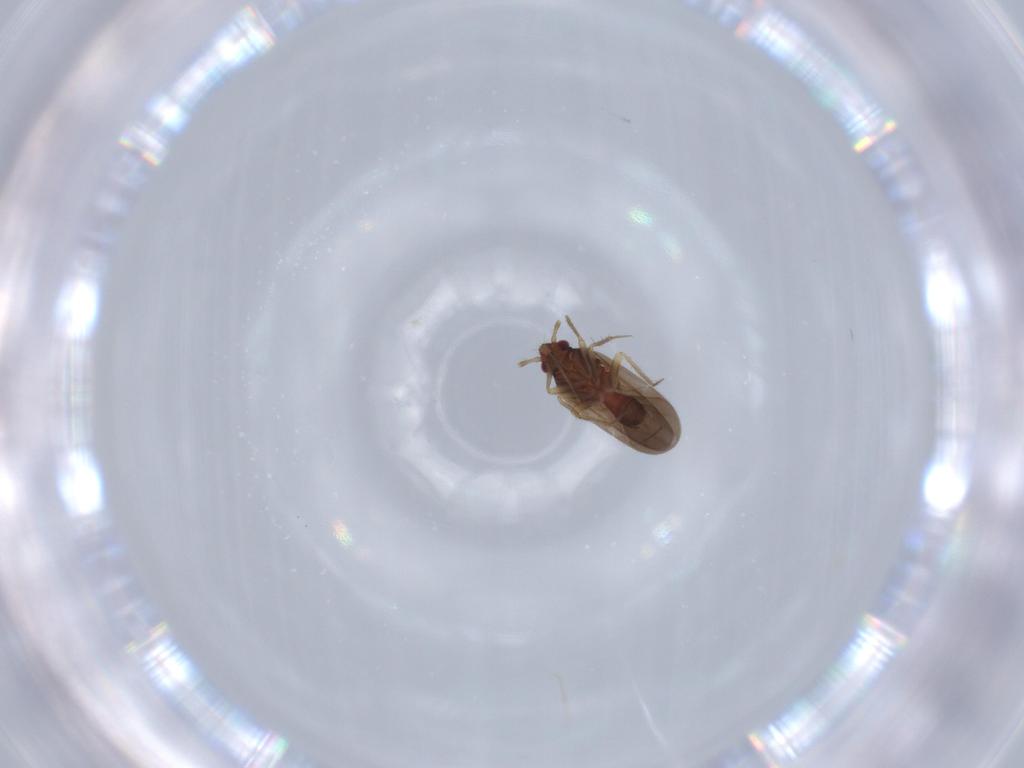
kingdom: Animalia
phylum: Arthropoda
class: Insecta
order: Hemiptera
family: Ceratocombidae
